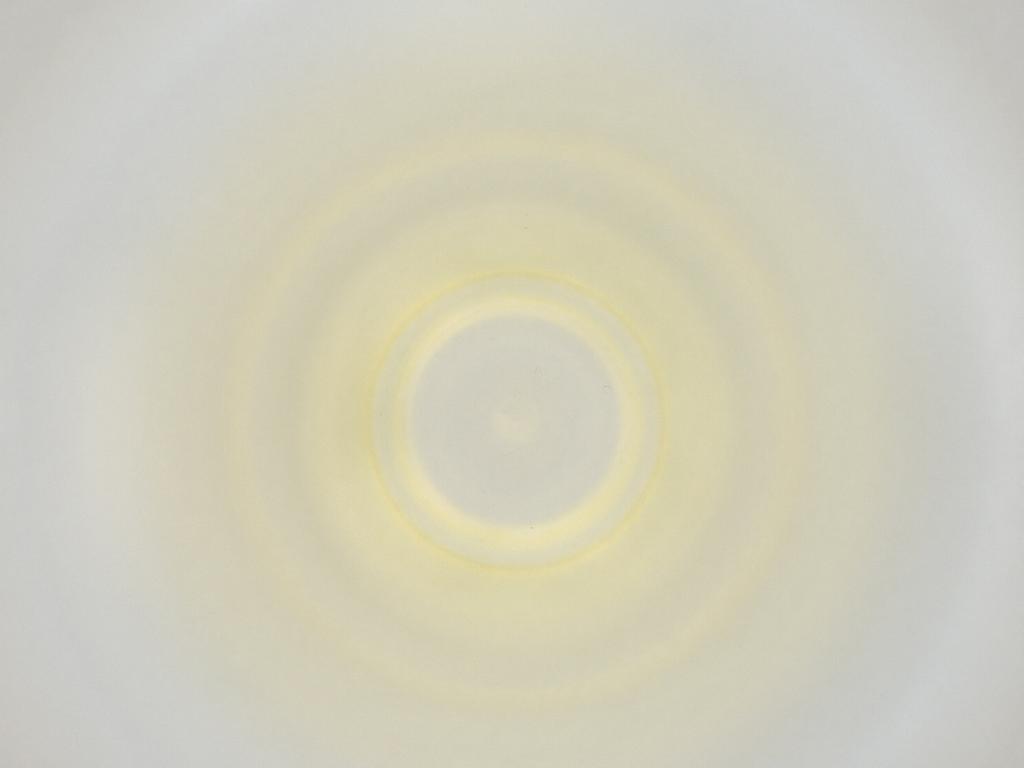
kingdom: Animalia
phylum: Arthropoda
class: Insecta
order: Diptera
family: Cecidomyiidae
